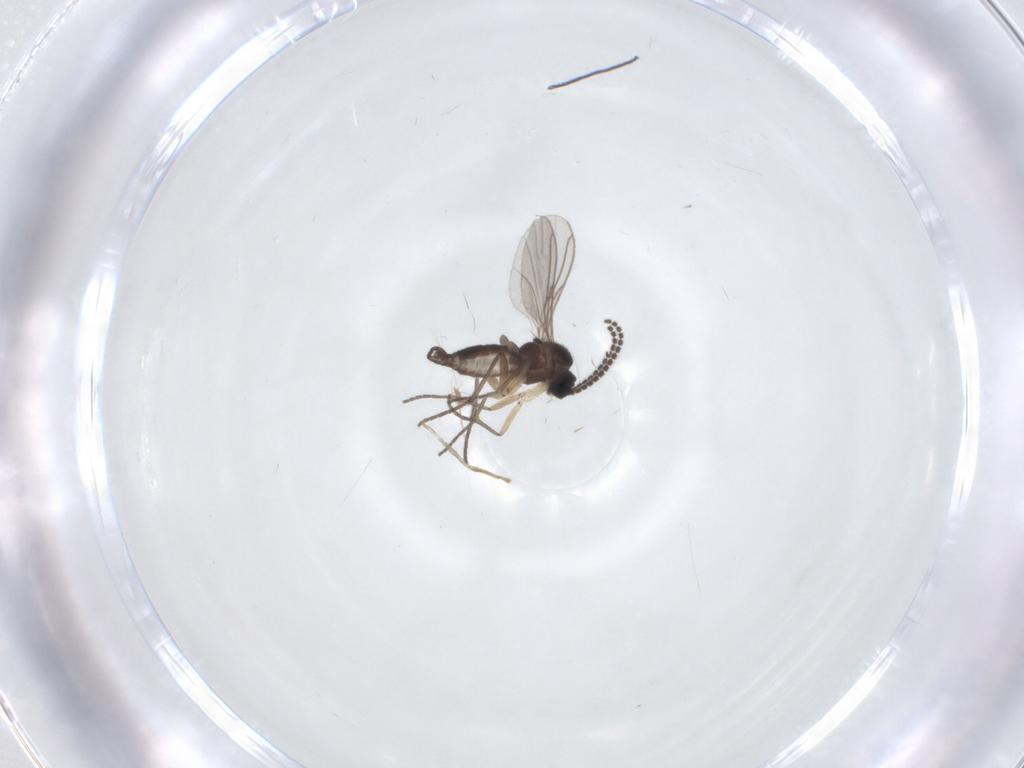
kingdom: Animalia
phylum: Arthropoda
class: Insecta
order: Diptera
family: Sciaridae
